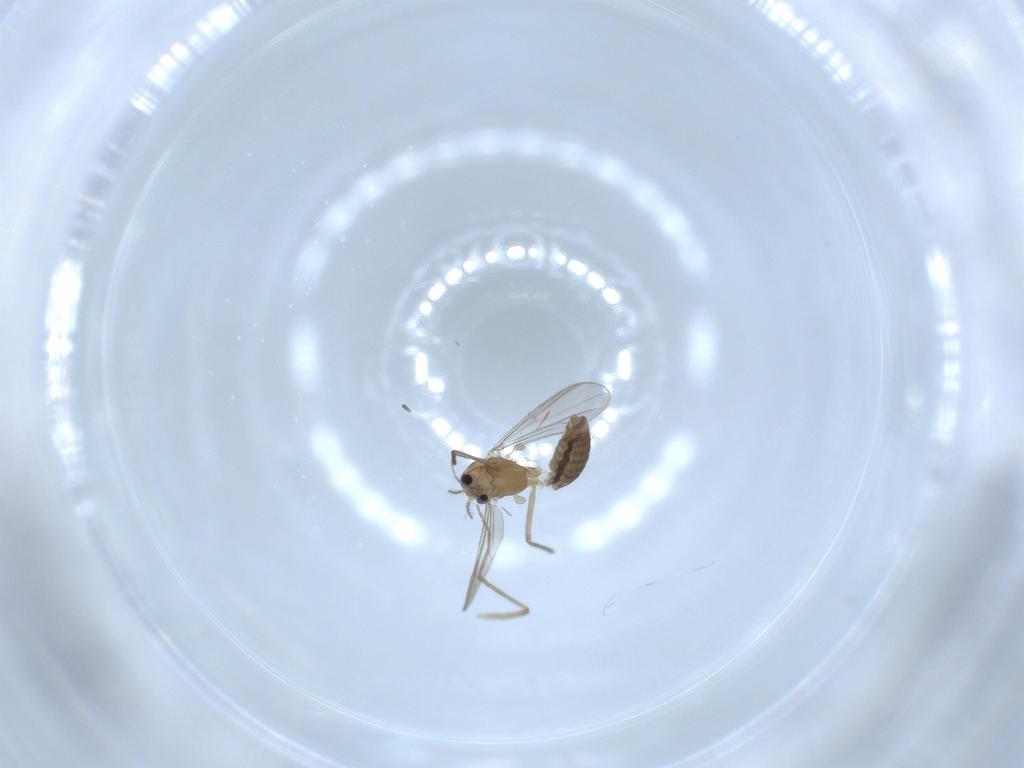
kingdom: Animalia
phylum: Arthropoda
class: Insecta
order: Diptera
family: Chironomidae
